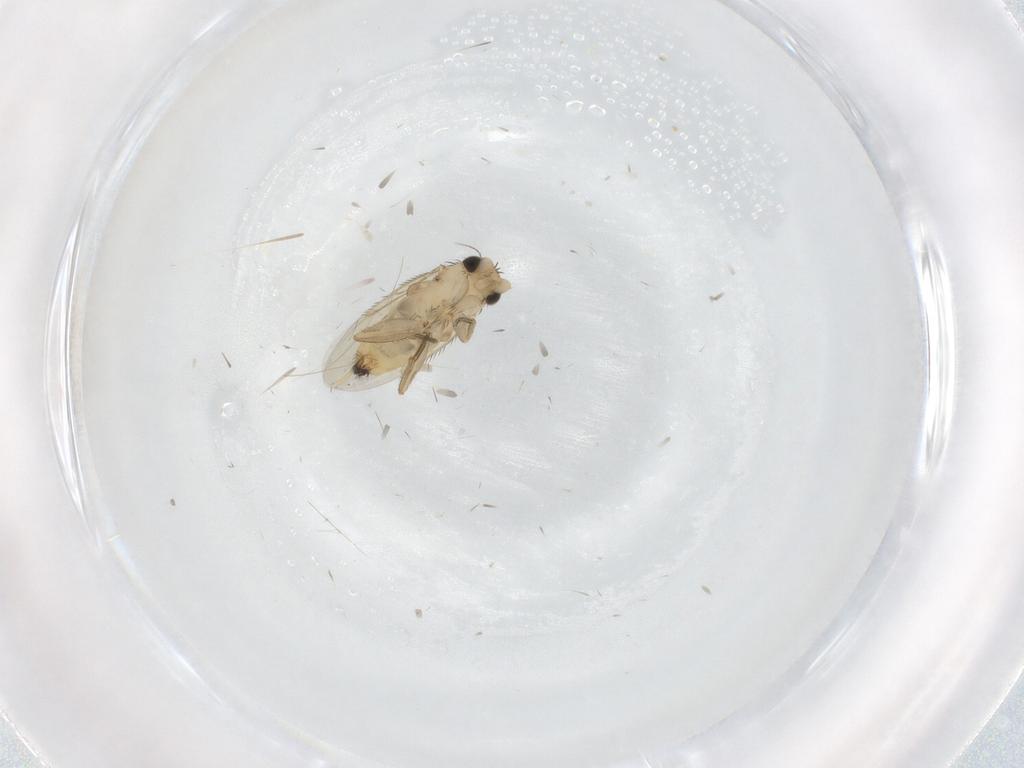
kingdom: Animalia
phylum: Arthropoda
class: Insecta
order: Diptera
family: Phoridae
